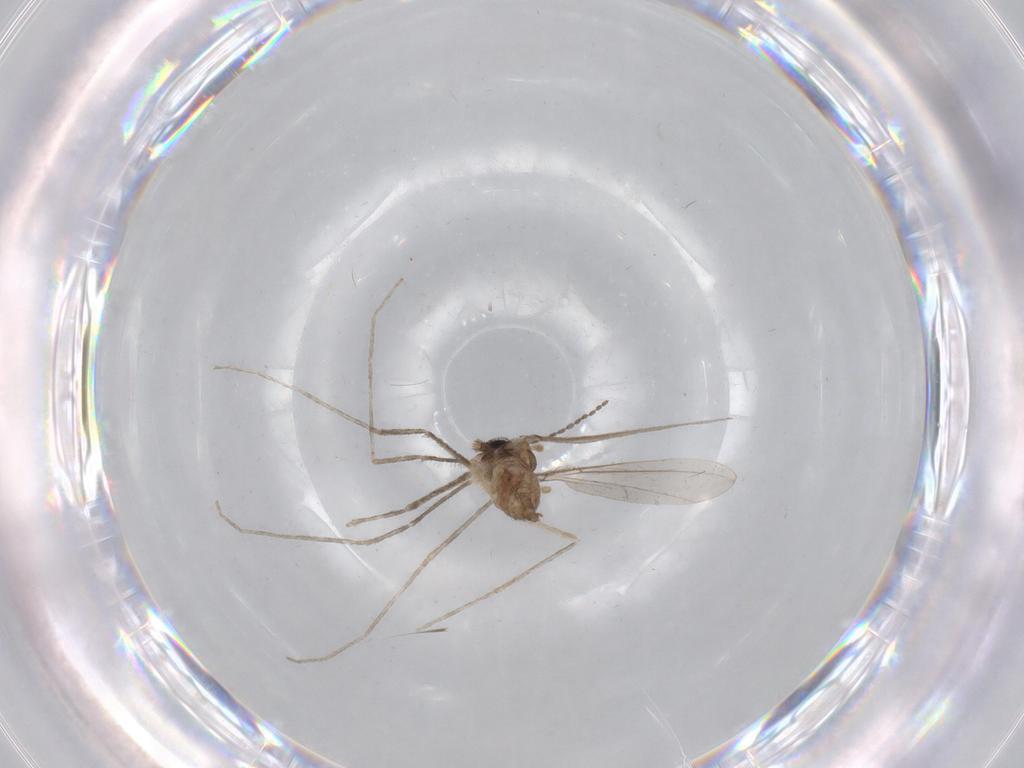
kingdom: Animalia
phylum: Arthropoda
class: Insecta
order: Diptera
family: Cecidomyiidae
